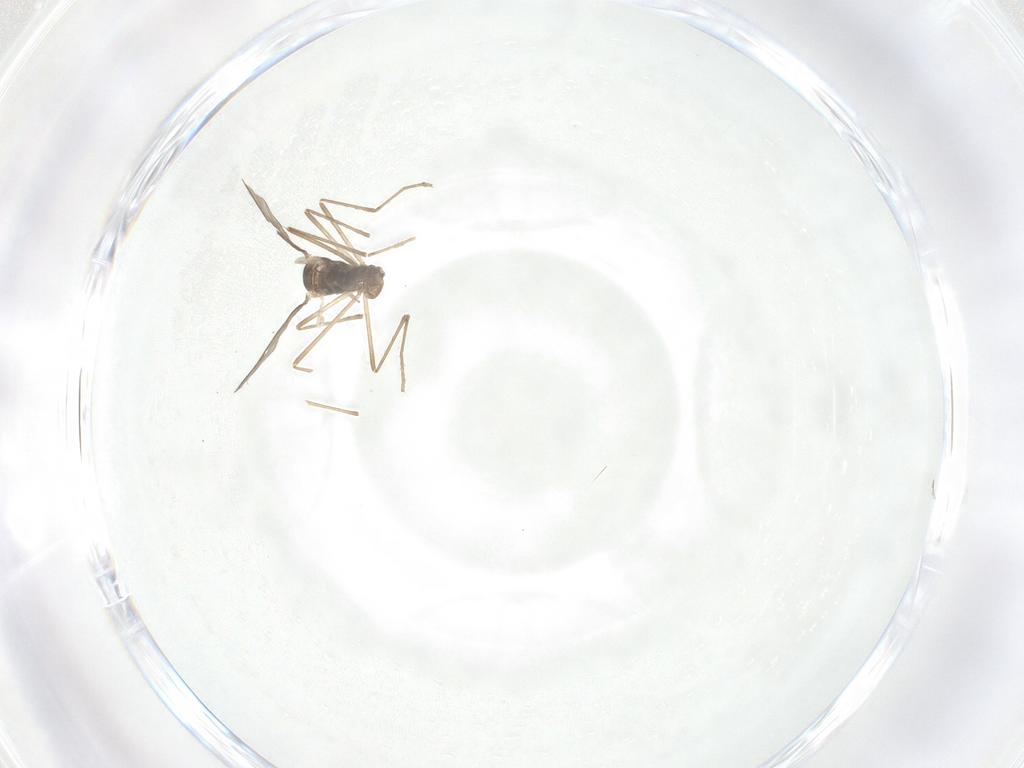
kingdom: Animalia
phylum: Arthropoda
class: Insecta
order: Diptera
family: Cecidomyiidae
